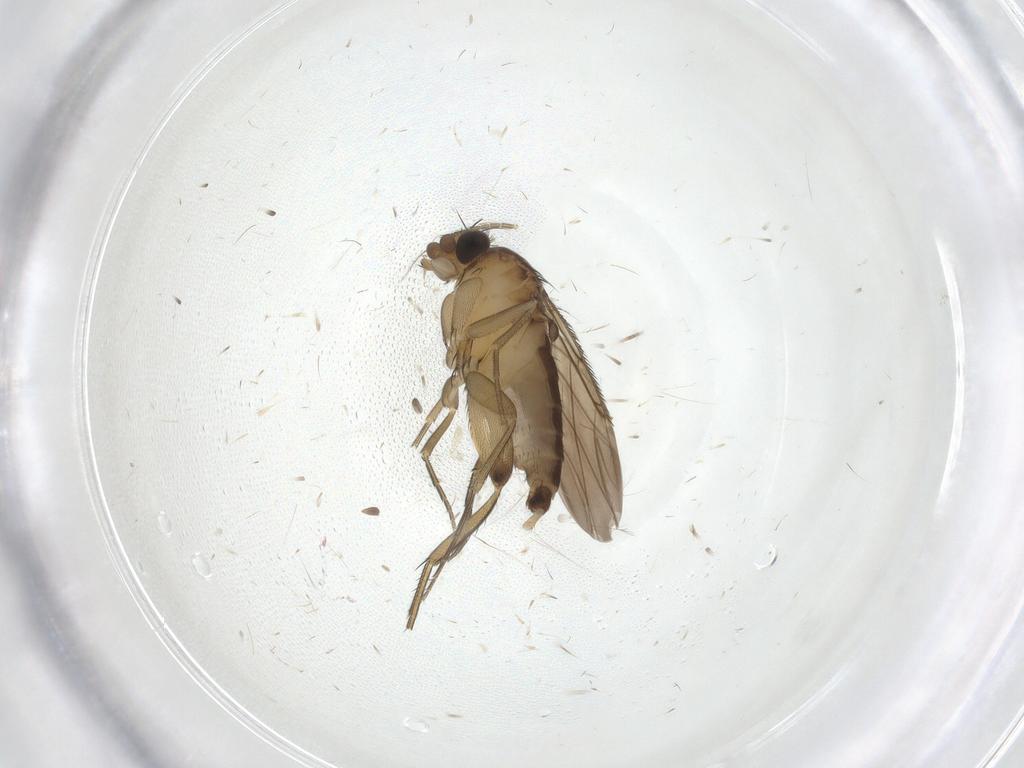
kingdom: Animalia
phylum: Arthropoda
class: Insecta
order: Diptera
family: Phoridae
